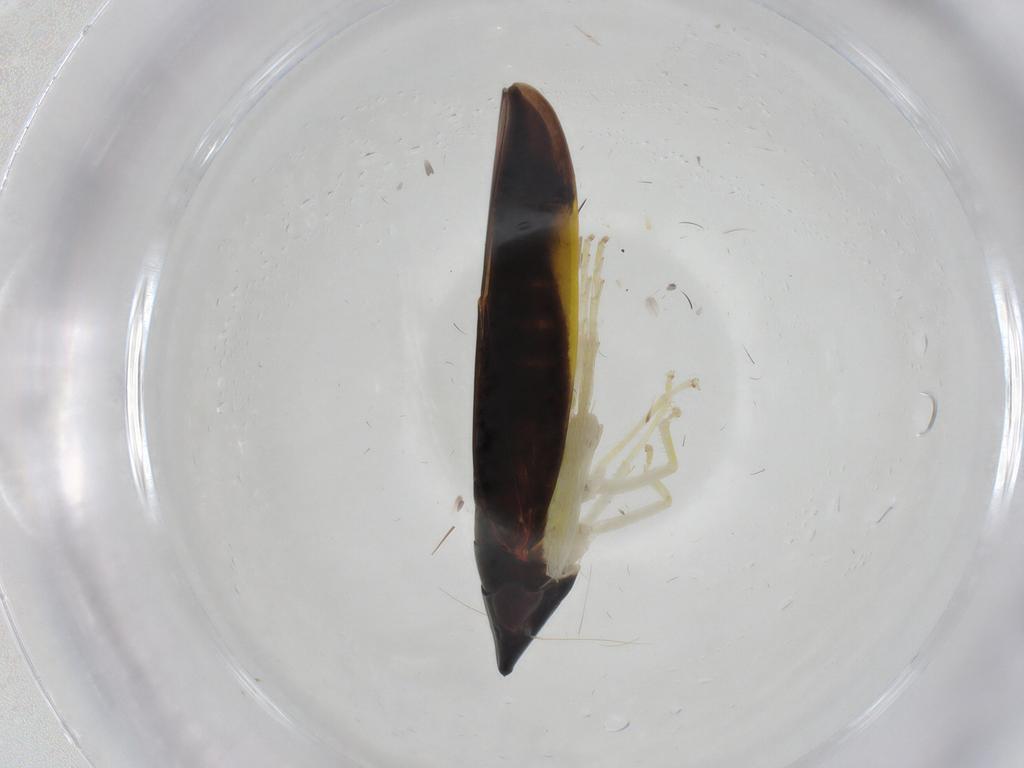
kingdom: Animalia
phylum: Arthropoda
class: Insecta
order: Hemiptera
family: Cicadellidae
